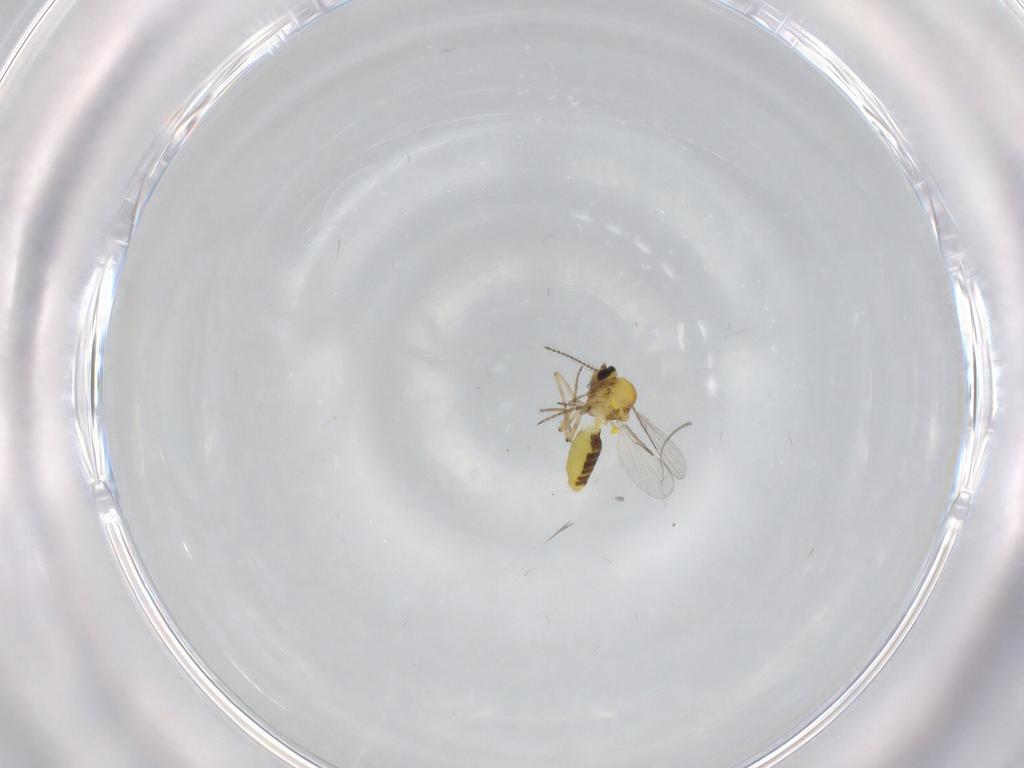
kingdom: Animalia
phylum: Arthropoda
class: Insecta
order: Diptera
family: Ceratopogonidae
